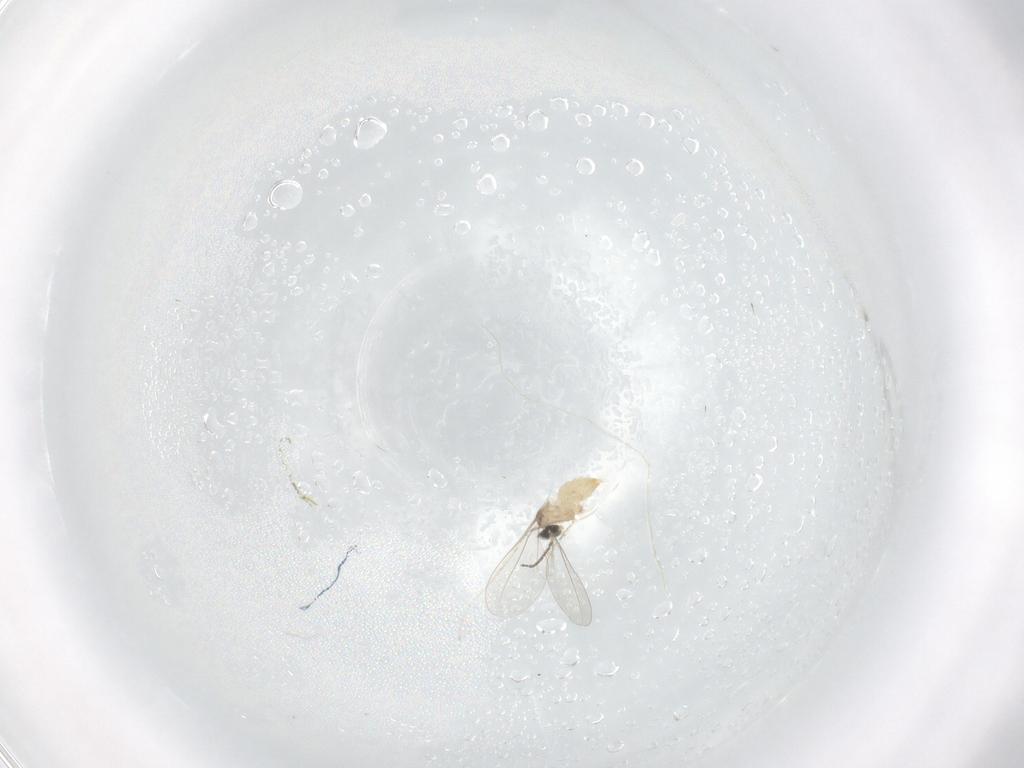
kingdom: Animalia
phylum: Arthropoda
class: Insecta
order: Diptera
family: Cecidomyiidae
